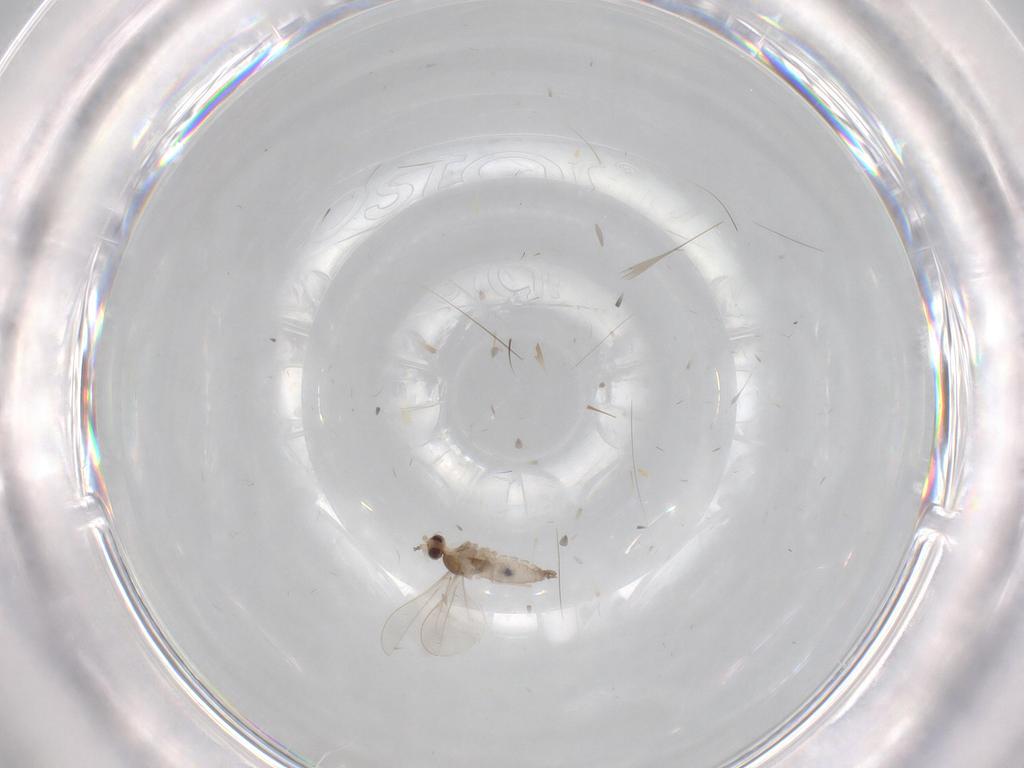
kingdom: Animalia
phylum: Arthropoda
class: Insecta
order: Diptera
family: Cecidomyiidae
